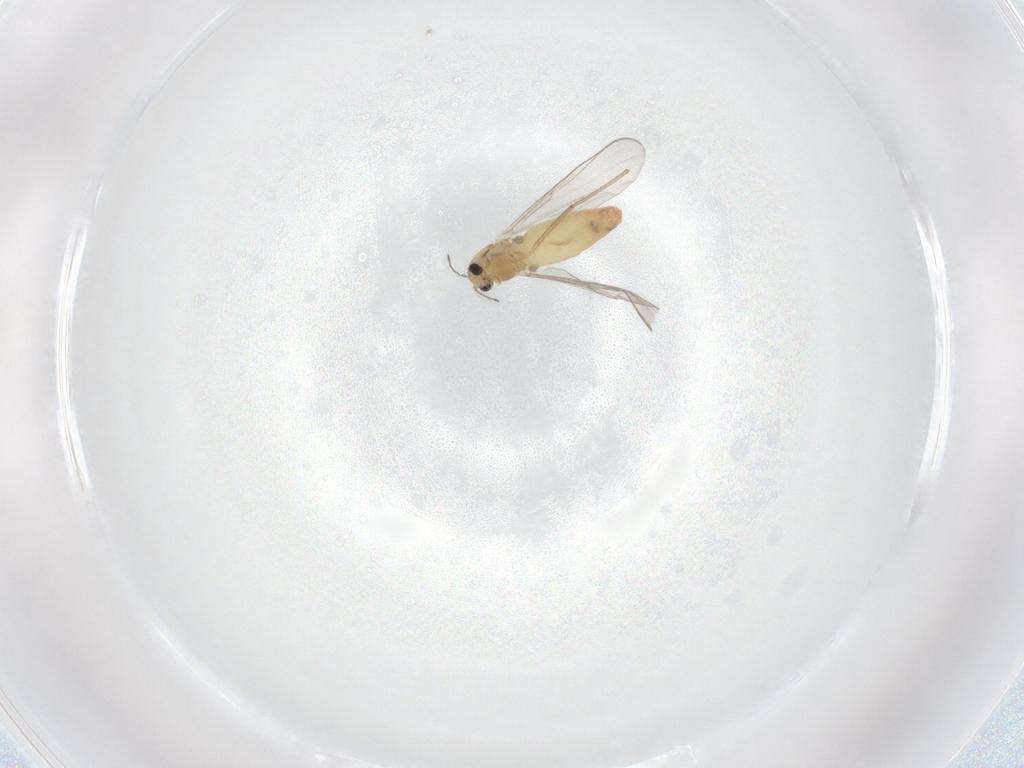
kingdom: Animalia
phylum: Arthropoda
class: Insecta
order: Diptera
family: Chironomidae
